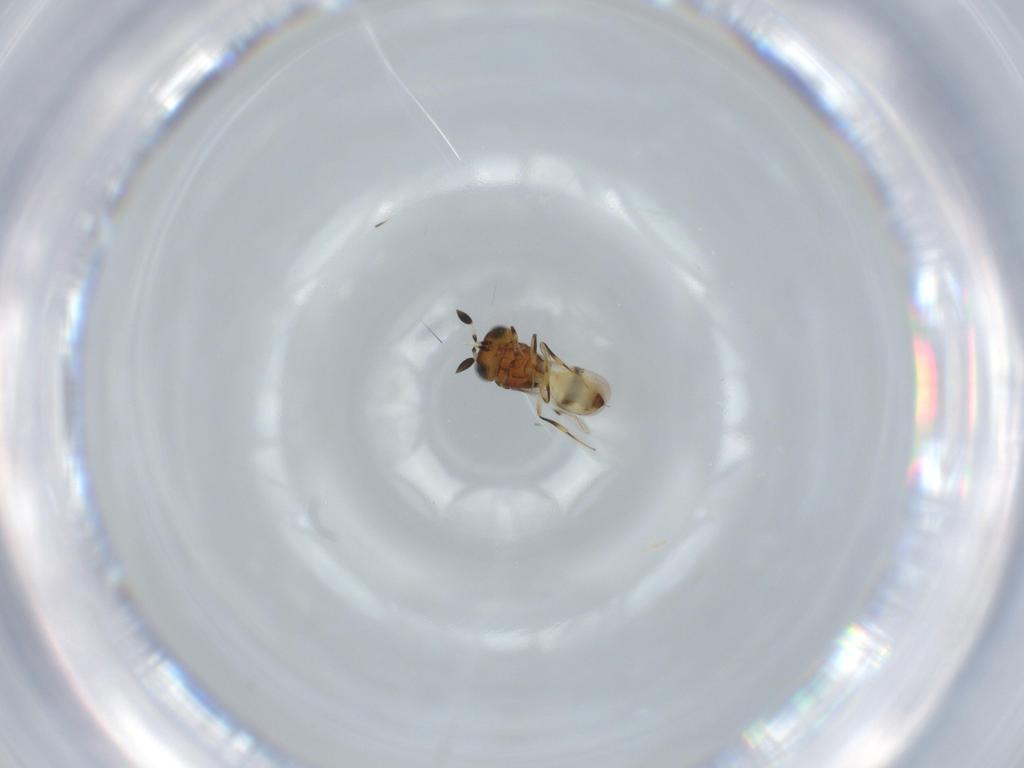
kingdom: Animalia
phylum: Arthropoda
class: Arachnida
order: Araneae
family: Pholcidae
